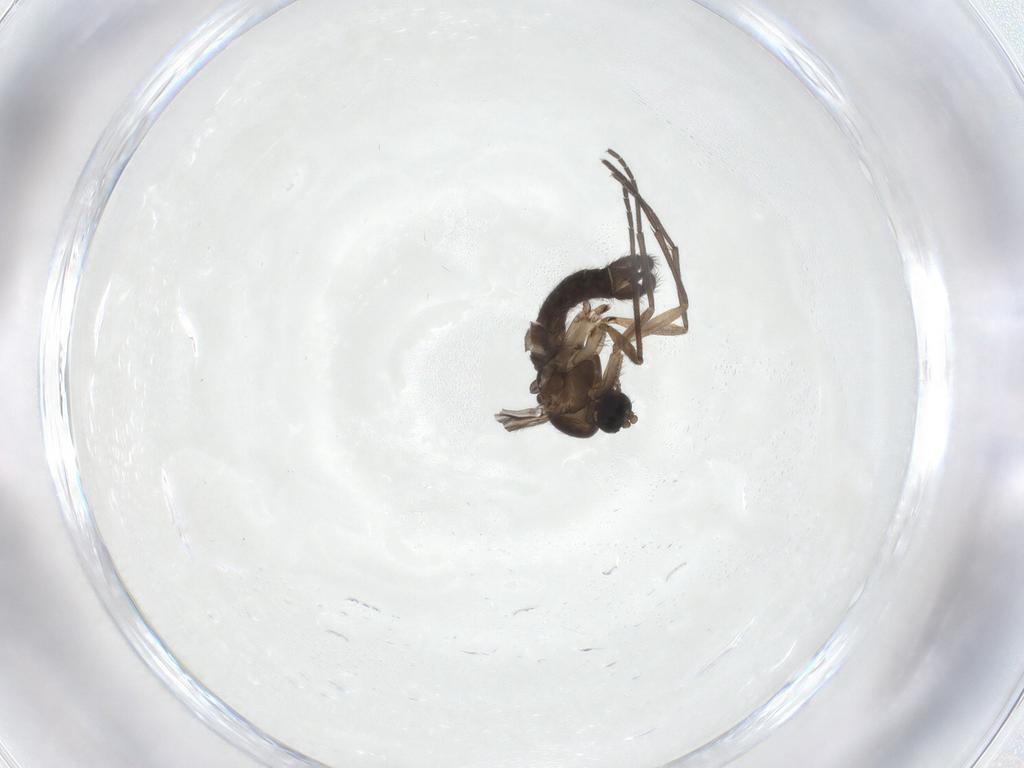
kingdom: Animalia
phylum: Arthropoda
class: Insecta
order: Diptera
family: Sciaridae
